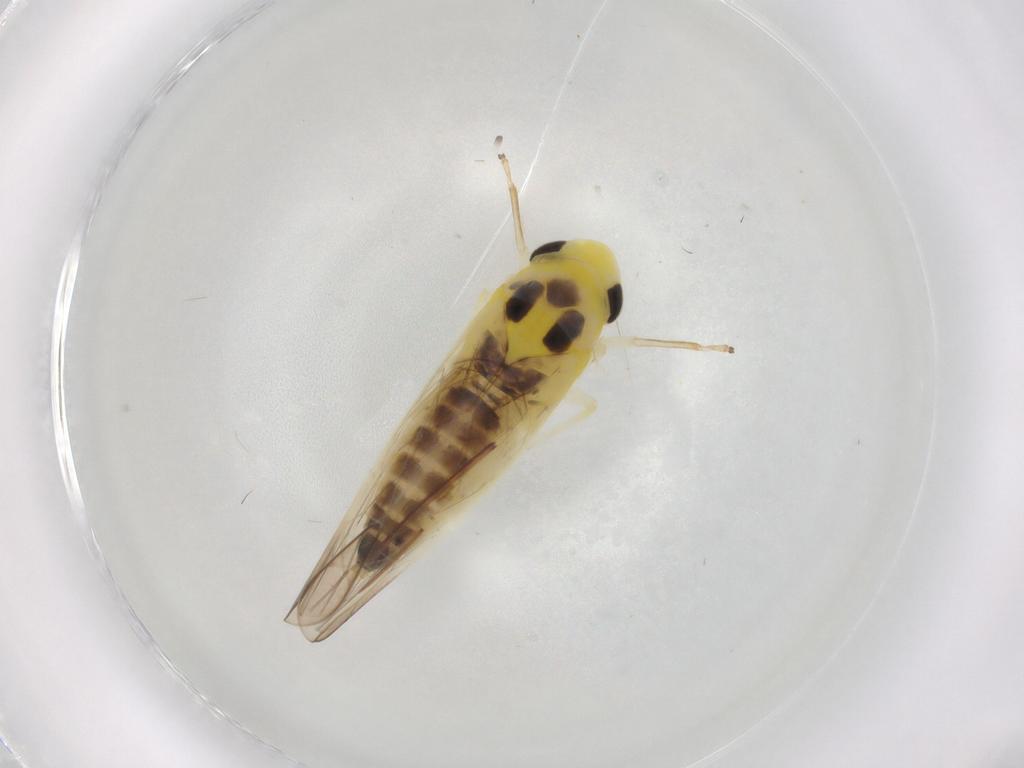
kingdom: Animalia
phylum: Arthropoda
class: Insecta
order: Hemiptera
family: Cicadellidae
